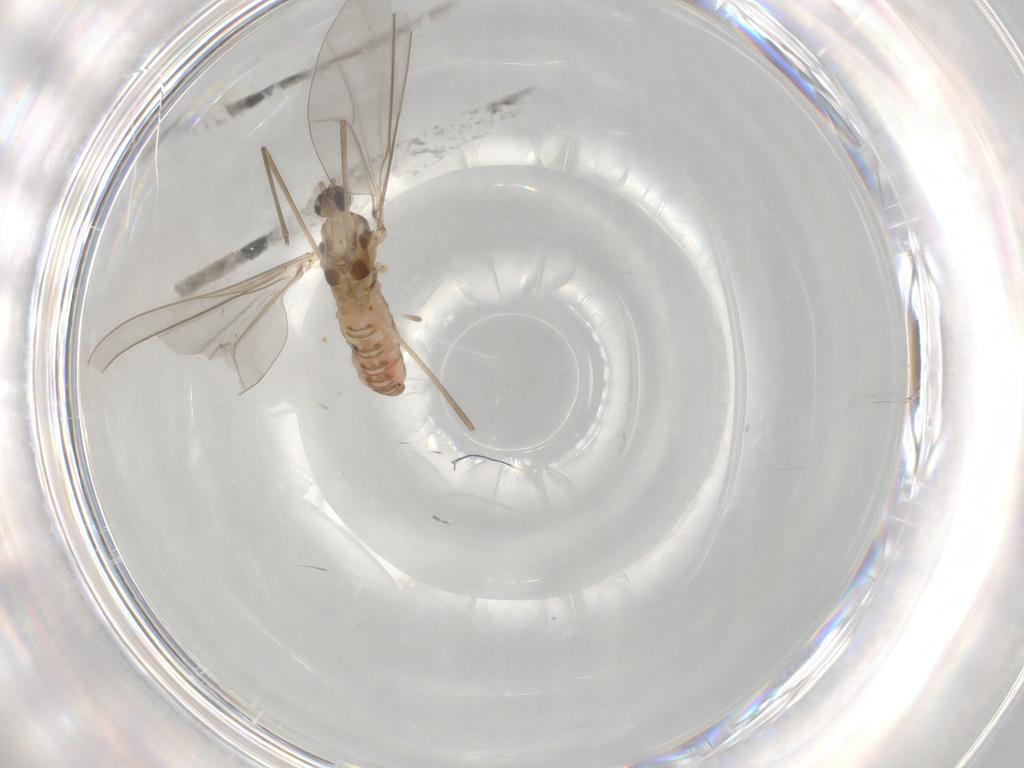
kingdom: Animalia
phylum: Arthropoda
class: Insecta
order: Diptera
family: Cecidomyiidae
